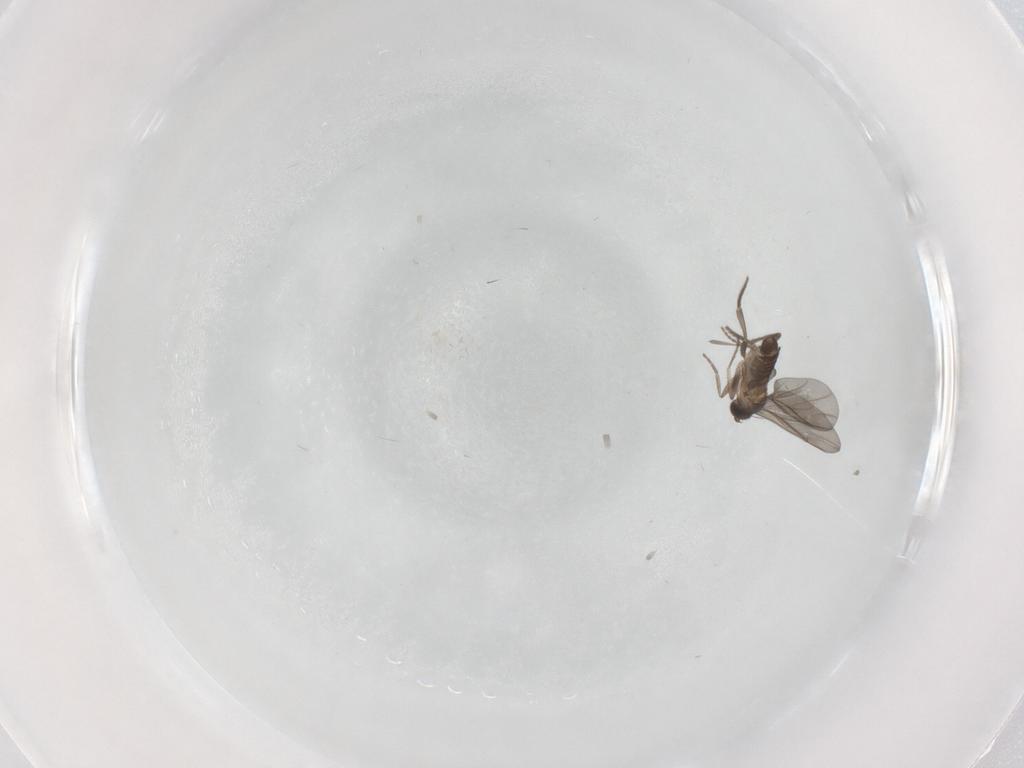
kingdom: Animalia
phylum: Arthropoda
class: Insecta
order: Diptera
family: Phoridae
